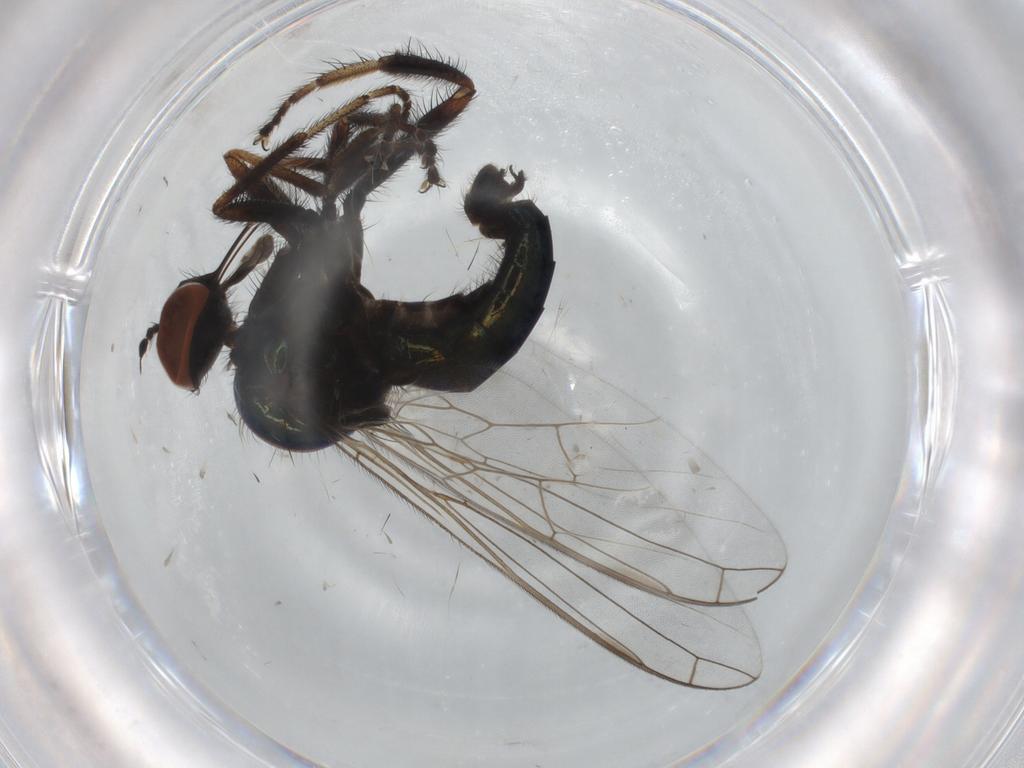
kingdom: Animalia
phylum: Arthropoda
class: Insecta
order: Diptera
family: Empididae
